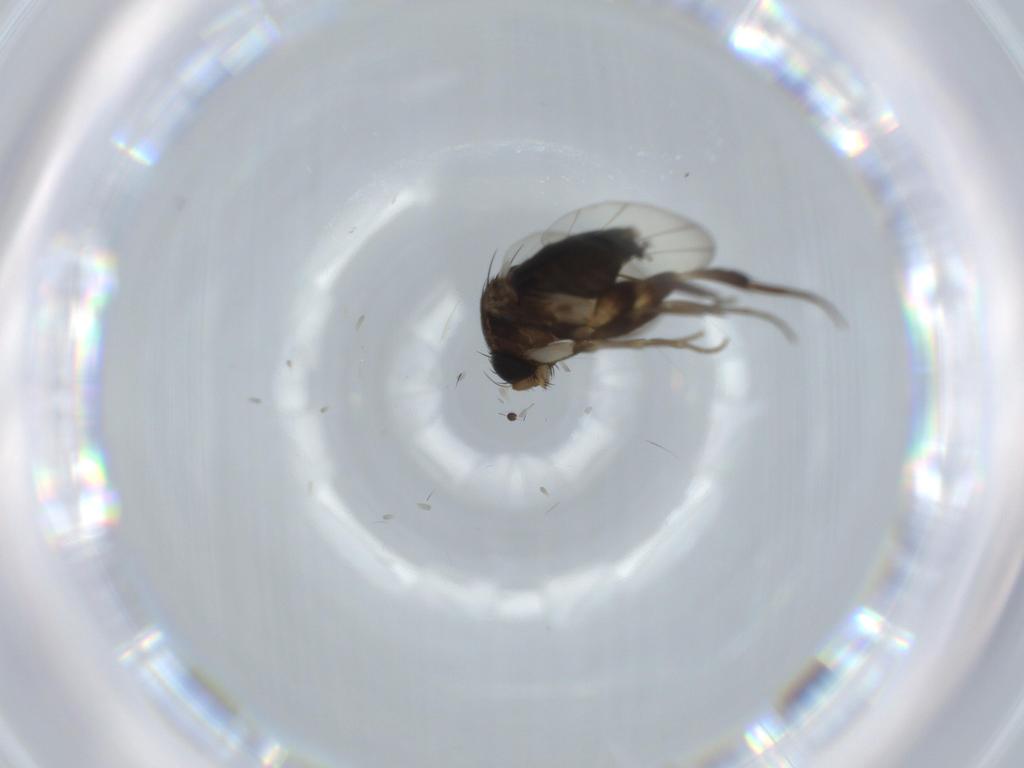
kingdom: Animalia
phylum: Arthropoda
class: Insecta
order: Diptera
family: Phoridae
